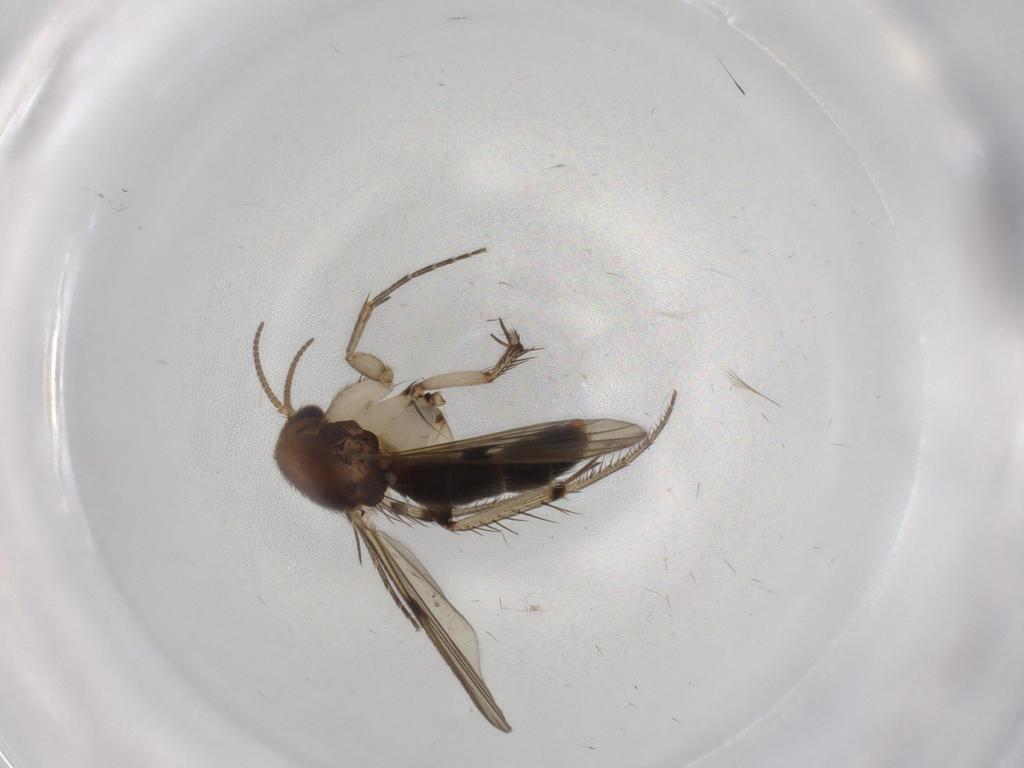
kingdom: Animalia
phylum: Arthropoda
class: Insecta
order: Diptera
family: Mycetophilidae
